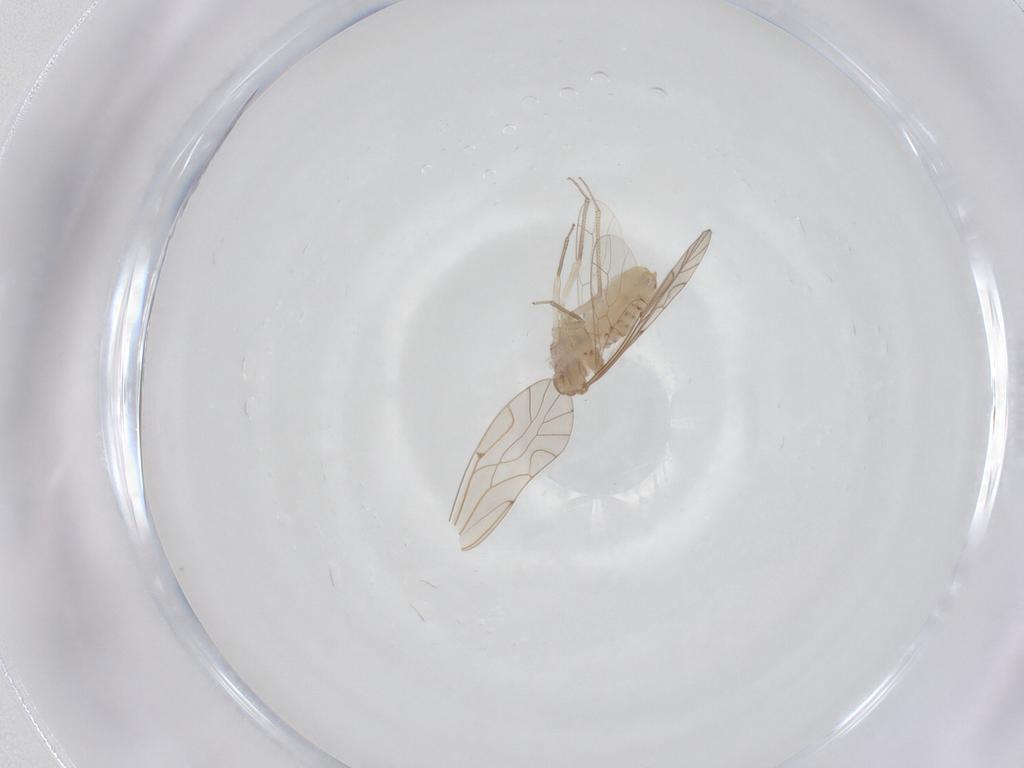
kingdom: Animalia
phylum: Arthropoda
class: Insecta
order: Psocodea
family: Lachesillidae
